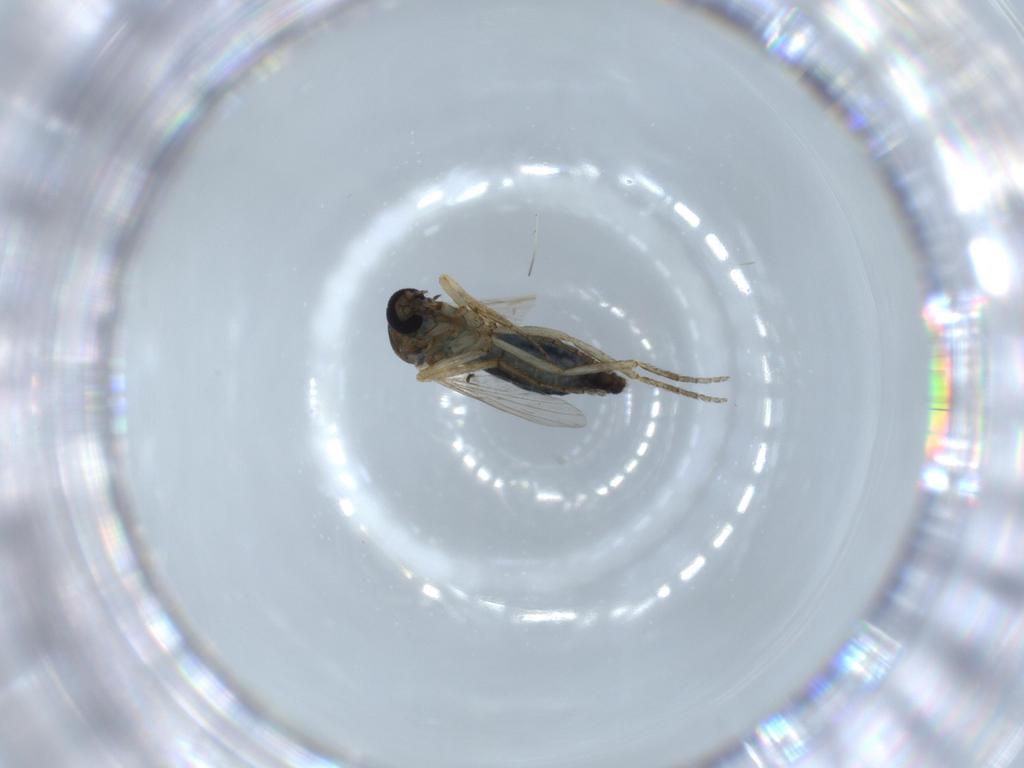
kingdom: Animalia
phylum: Arthropoda
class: Insecta
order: Diptera
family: Ceratopogonidae
